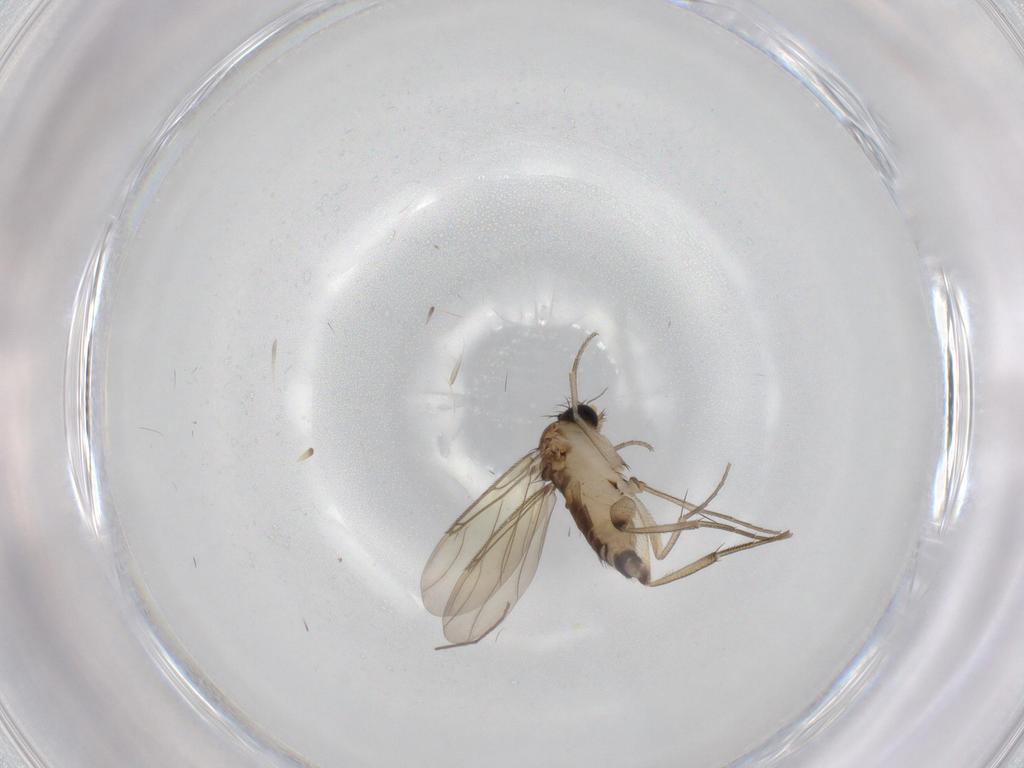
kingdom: Animalia
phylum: Arthropoda
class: Insecta
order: Diptera
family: Phoridae
